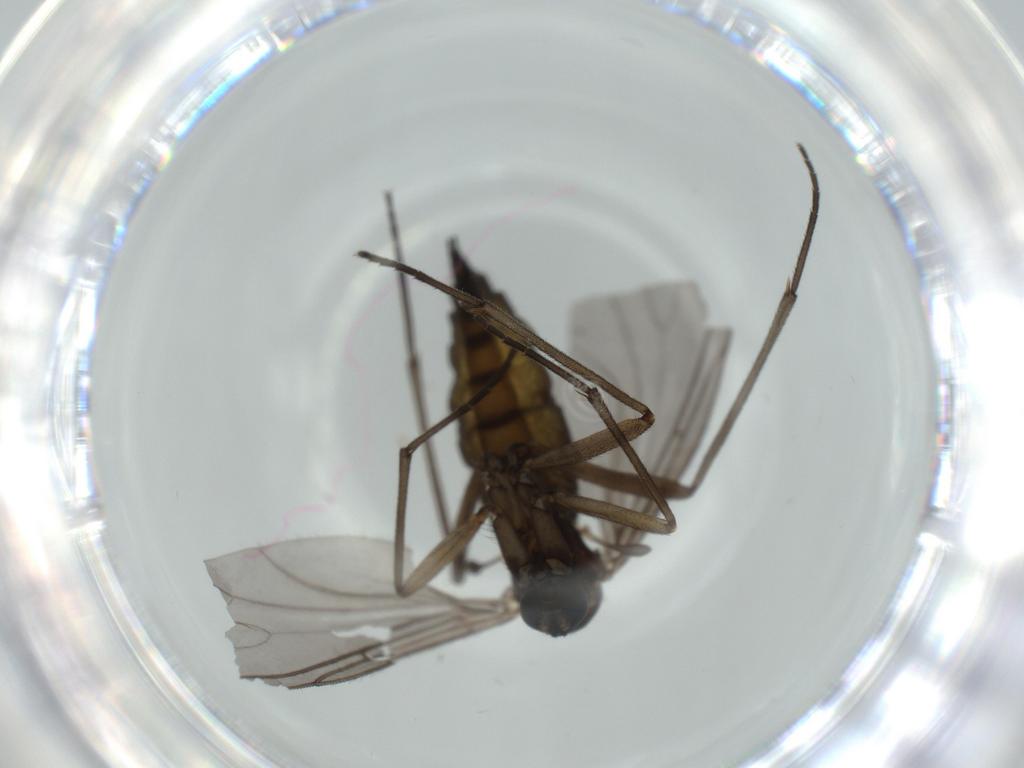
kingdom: Animalia
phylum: Arthropoda
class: Insecta
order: Diptera
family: Sciaridae
